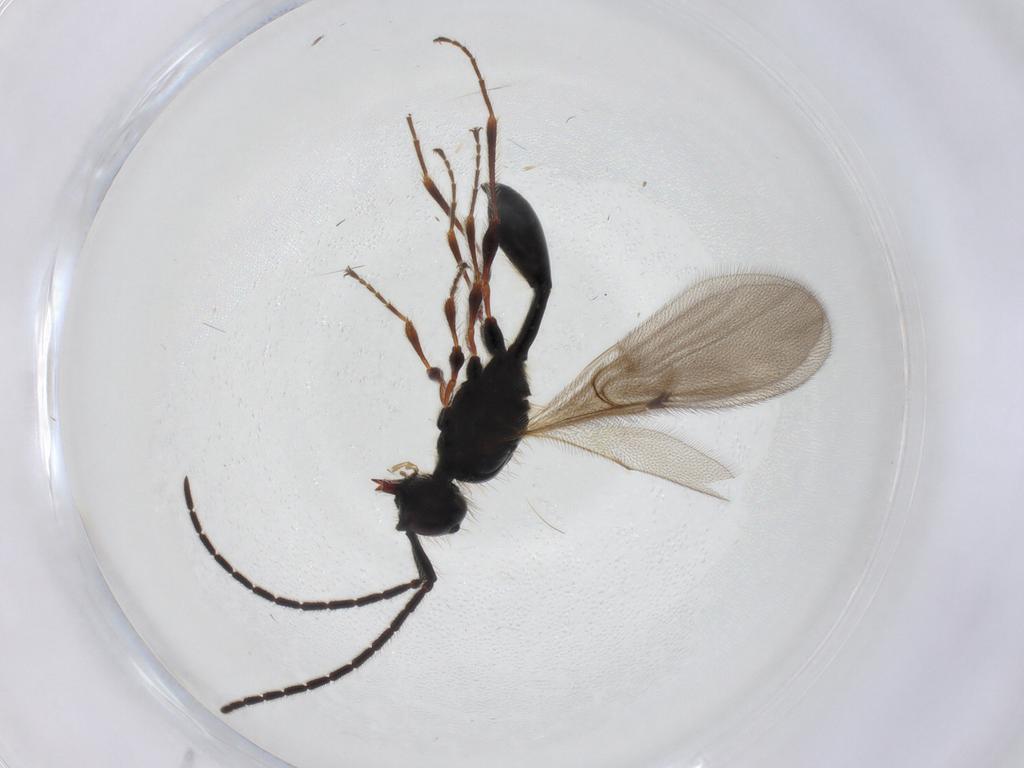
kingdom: Animalia
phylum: Arthropoda
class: Insecta
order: Hymenoptera
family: Diapriidae
